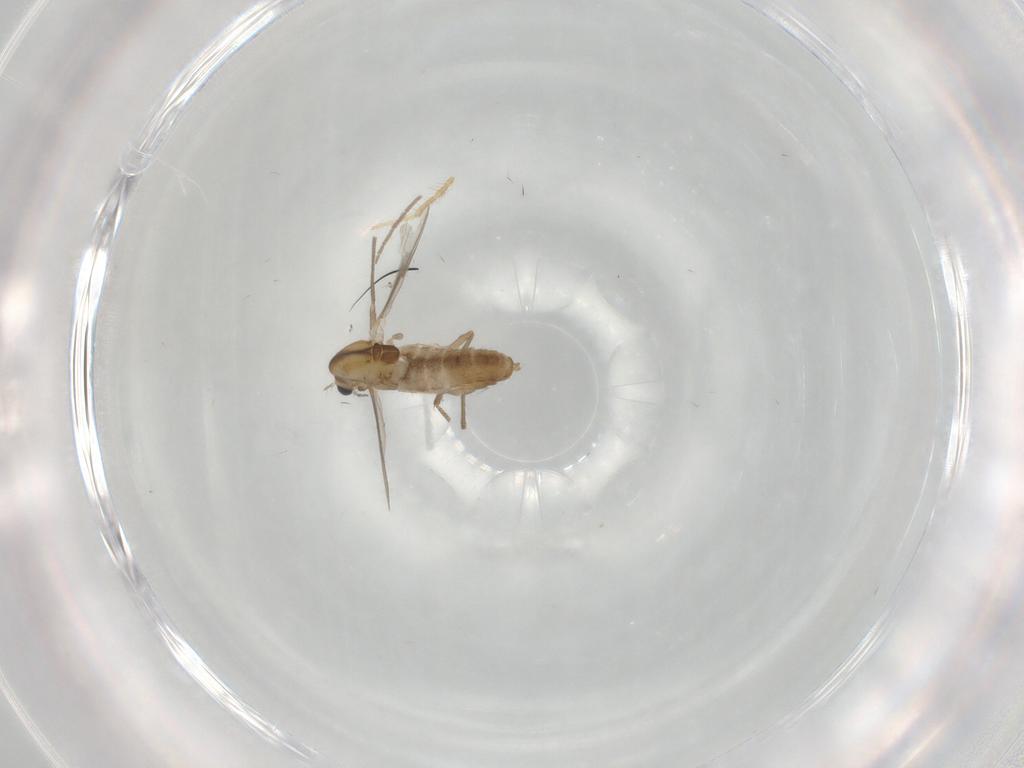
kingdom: Animalia
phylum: Arthropoda
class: Insecta
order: Diptera
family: Chironomidae
